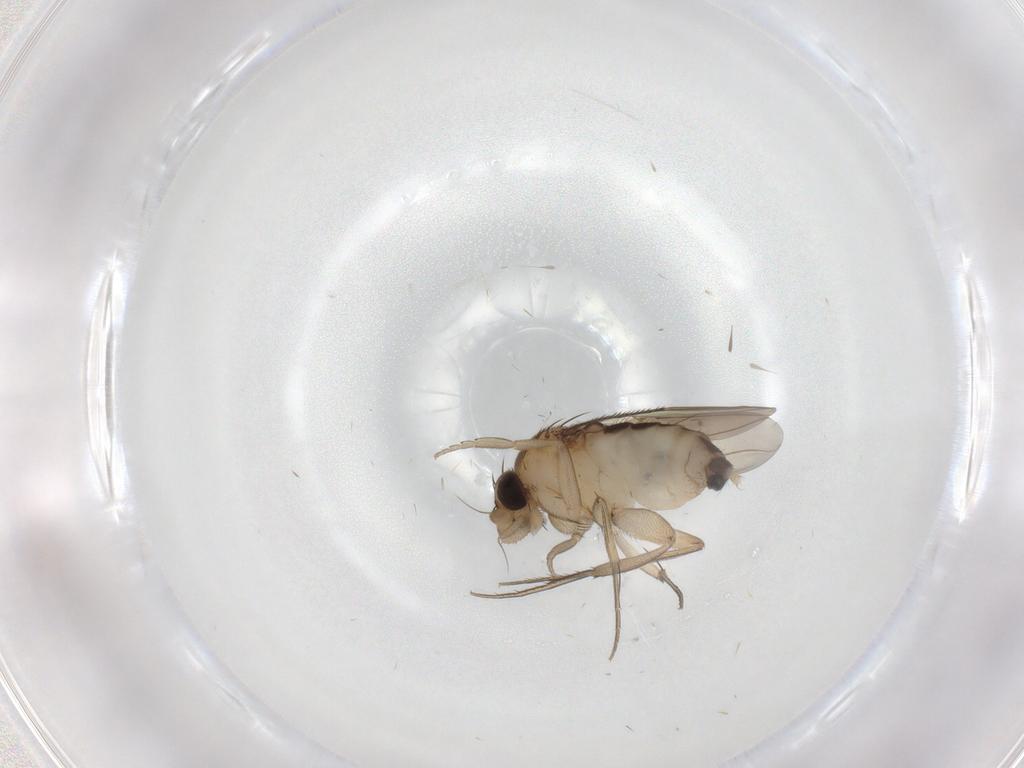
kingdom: Animalia
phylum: Arthropoda
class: Insecta
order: Diptera
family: Phoridae
